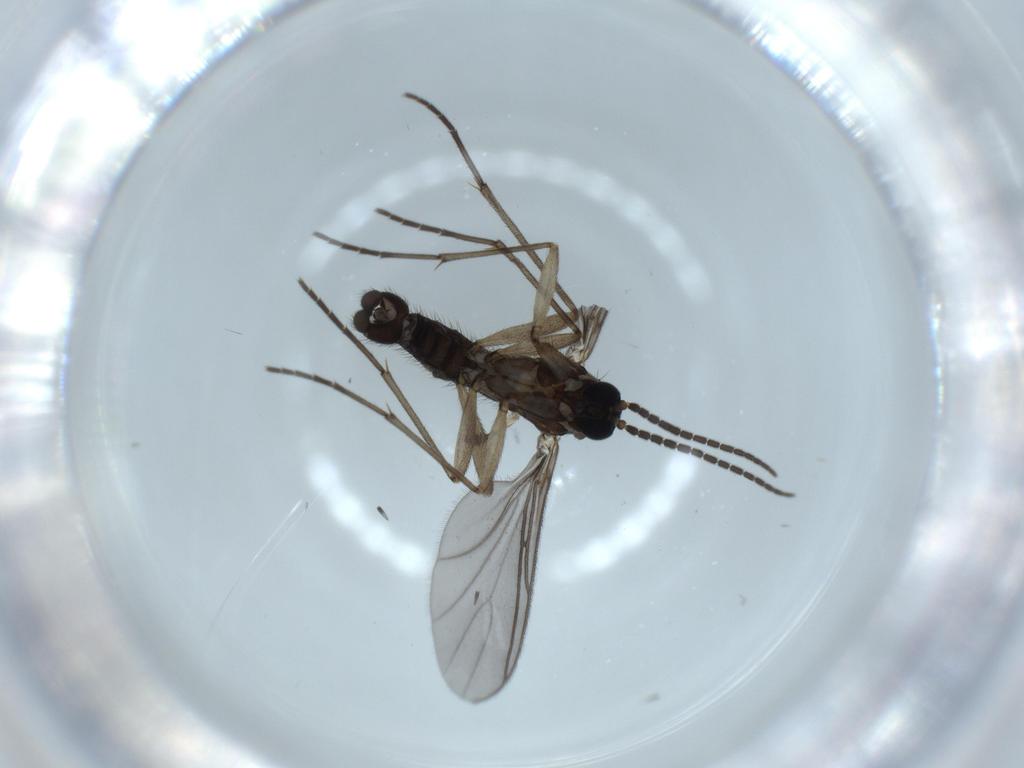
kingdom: Animalia
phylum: Arthropoda
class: Insecta
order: Diptera
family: Sciaridae
